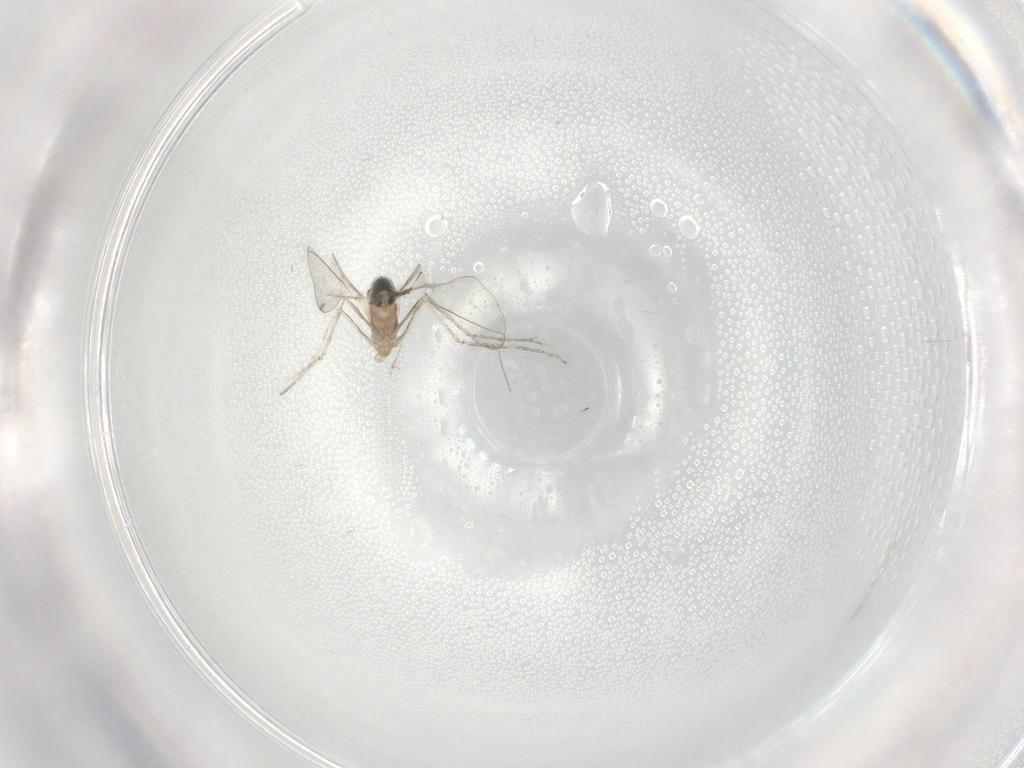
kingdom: Animalia
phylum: Arthropoda
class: Insecta
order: Diptera
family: Cecidomyiidae
